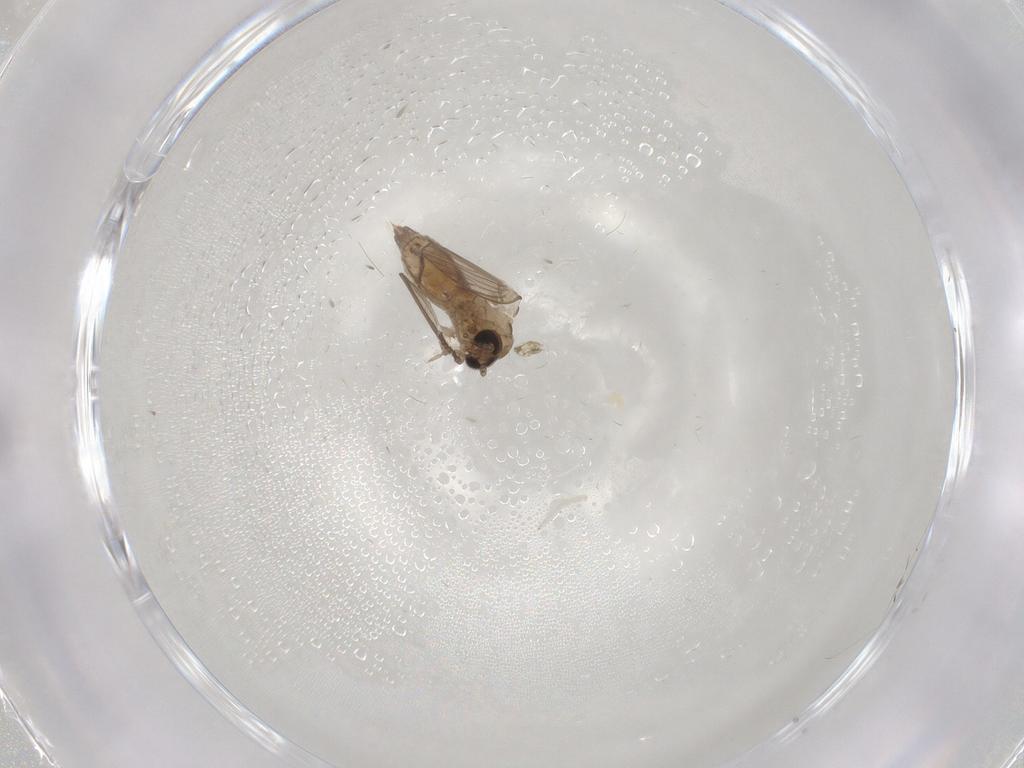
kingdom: Animalia
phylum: Arthropoda
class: Insecta
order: Diptera
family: Psychodidae
